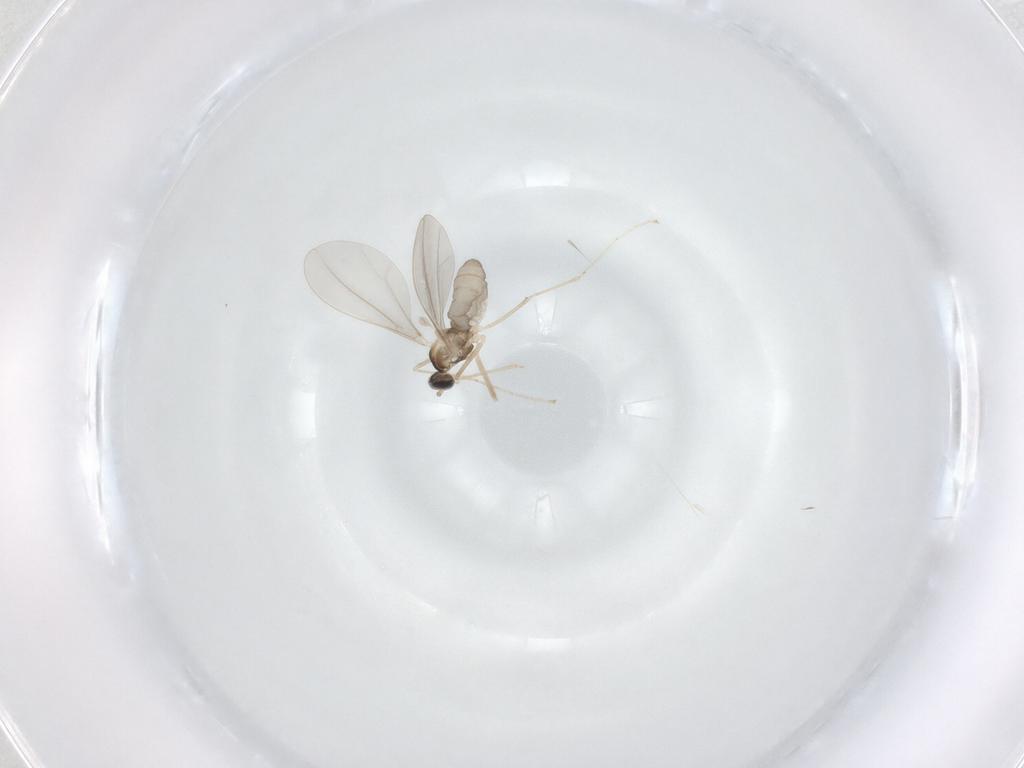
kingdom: Animalia
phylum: Arthropoda
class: Insecta
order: Diptera
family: Cecidomyiidae
